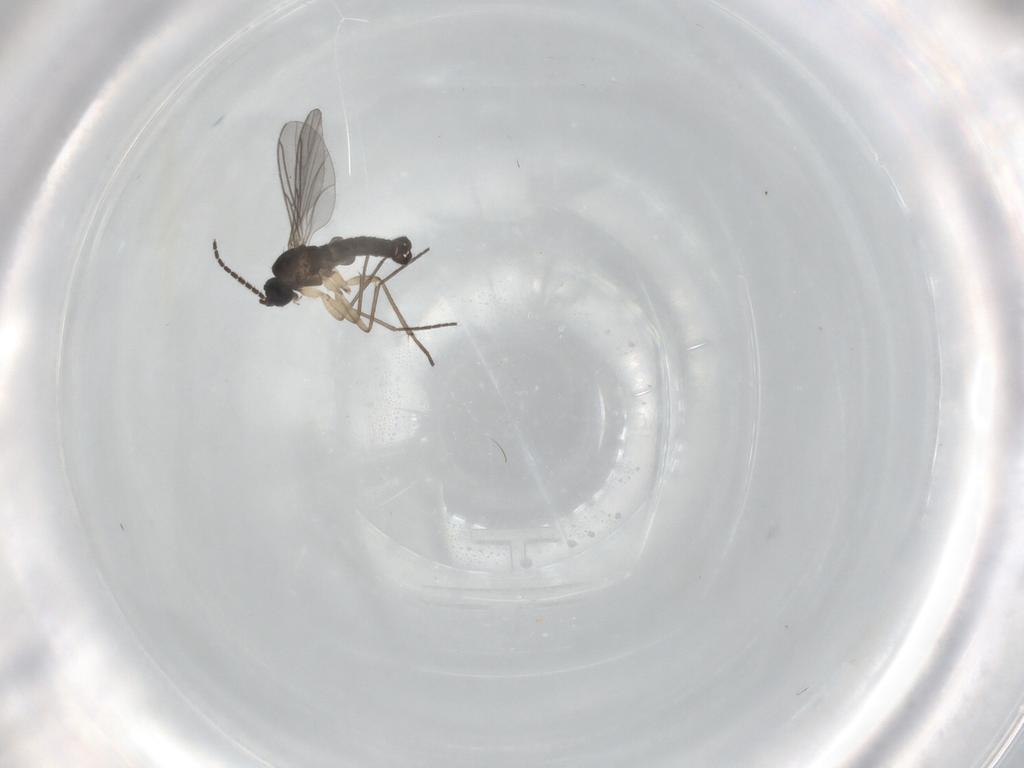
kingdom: Animalia
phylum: Arthropoda
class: Insecta
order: Diptera
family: Sciaridae
